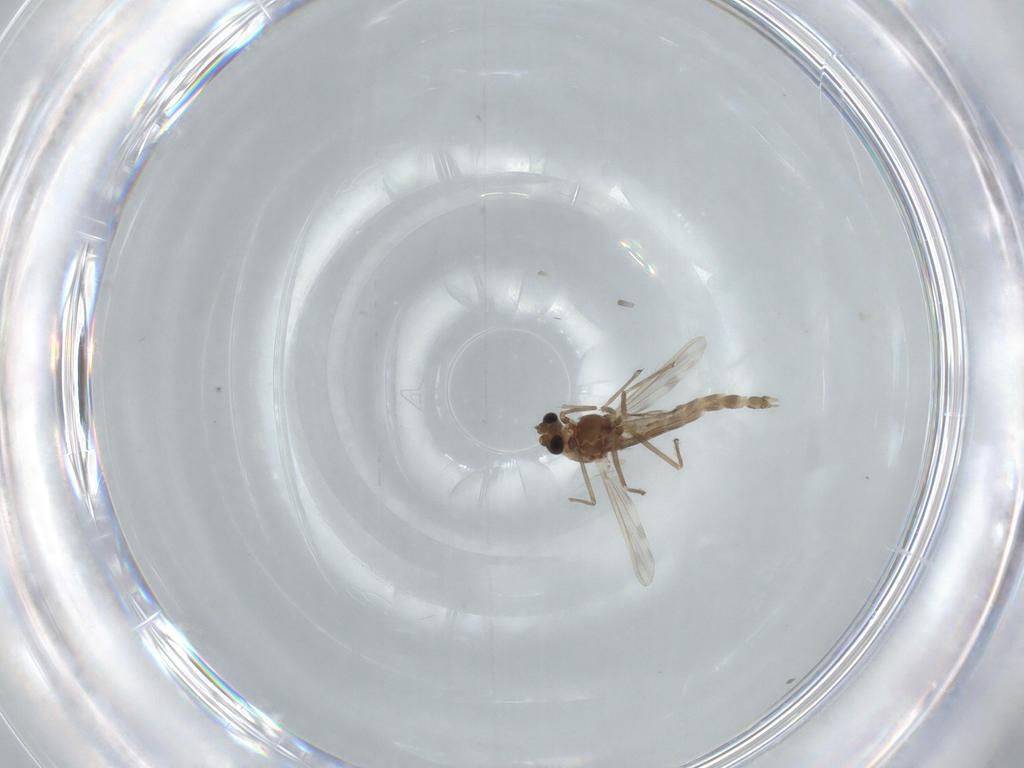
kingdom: Animalia
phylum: Arthropoda
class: Insecta
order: Diptera
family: Chironomidae
